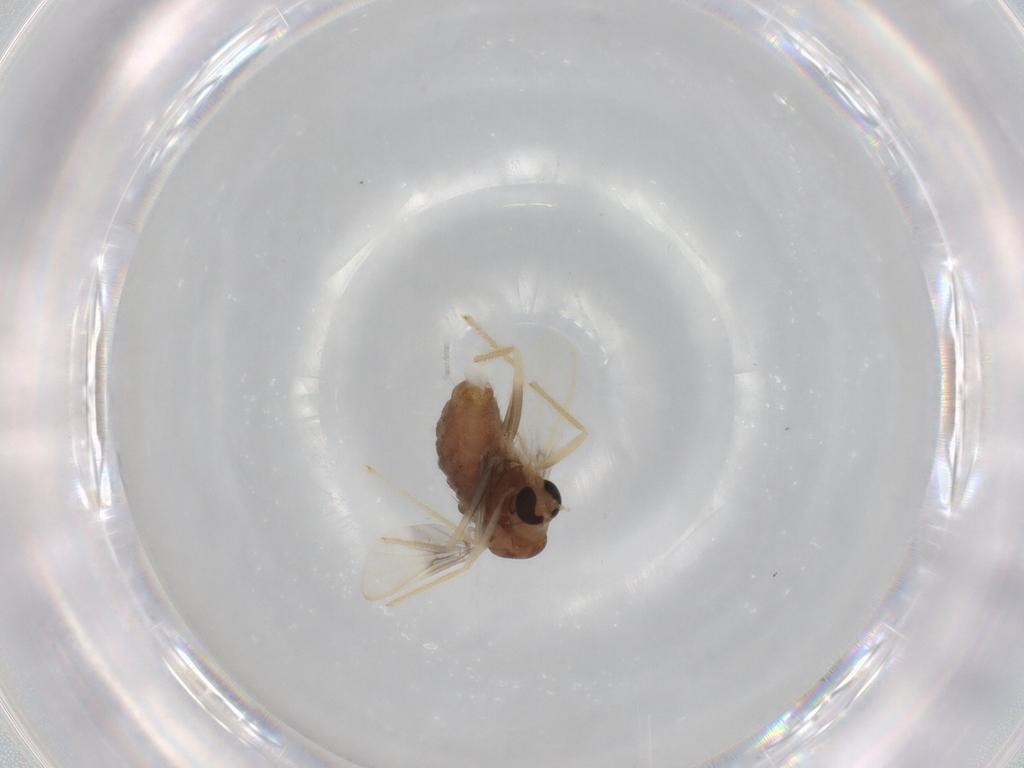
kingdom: Animalia
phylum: Arthropoda
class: Insecta
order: Diptera
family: Chironomidae
